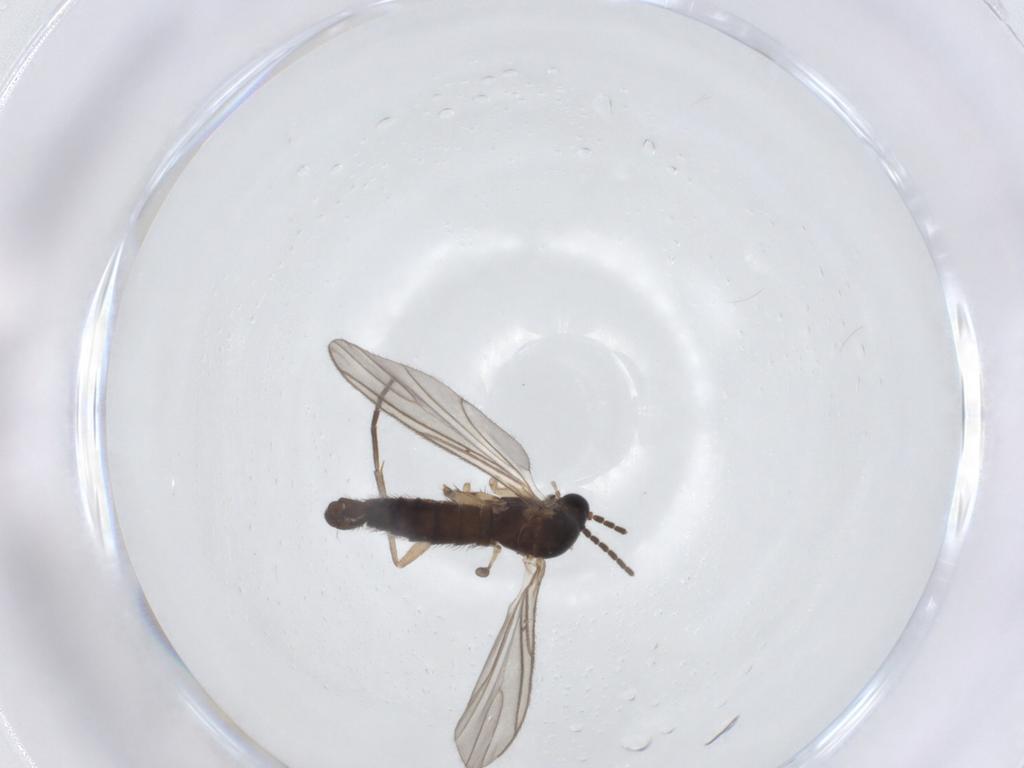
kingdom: Animalia
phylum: Arthropoda
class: Insecta
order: Diptera
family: Sciaridae
